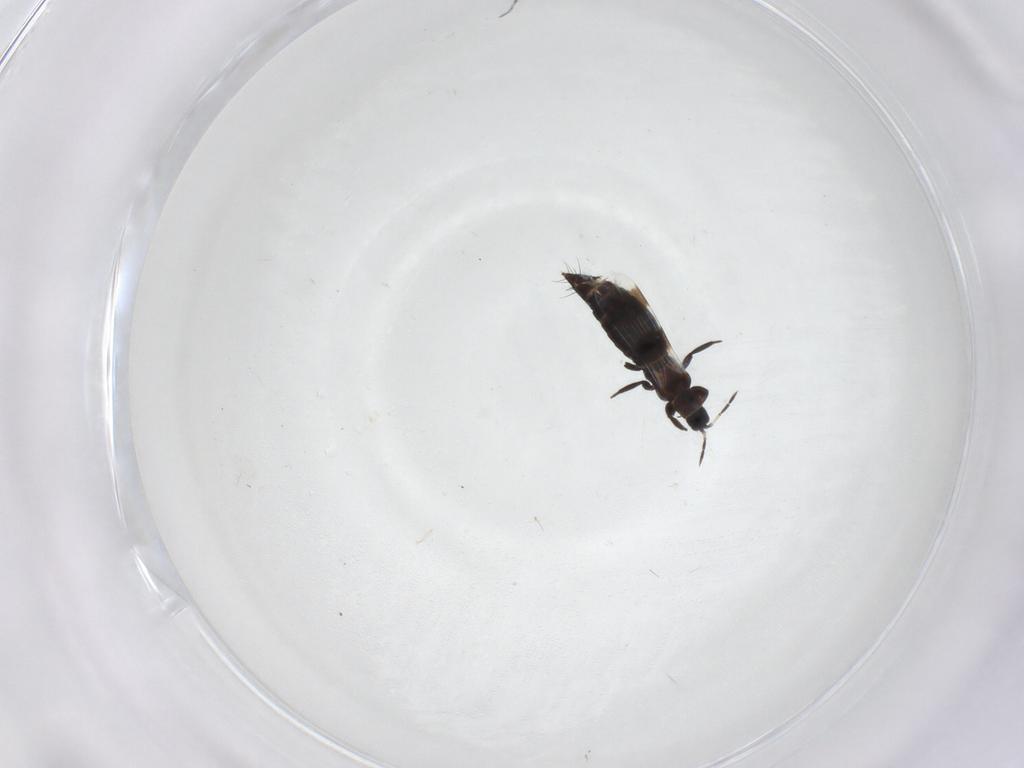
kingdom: Animalia
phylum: Arthropoda
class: Insecta
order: Thysanoptera
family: Aeolothripidae
